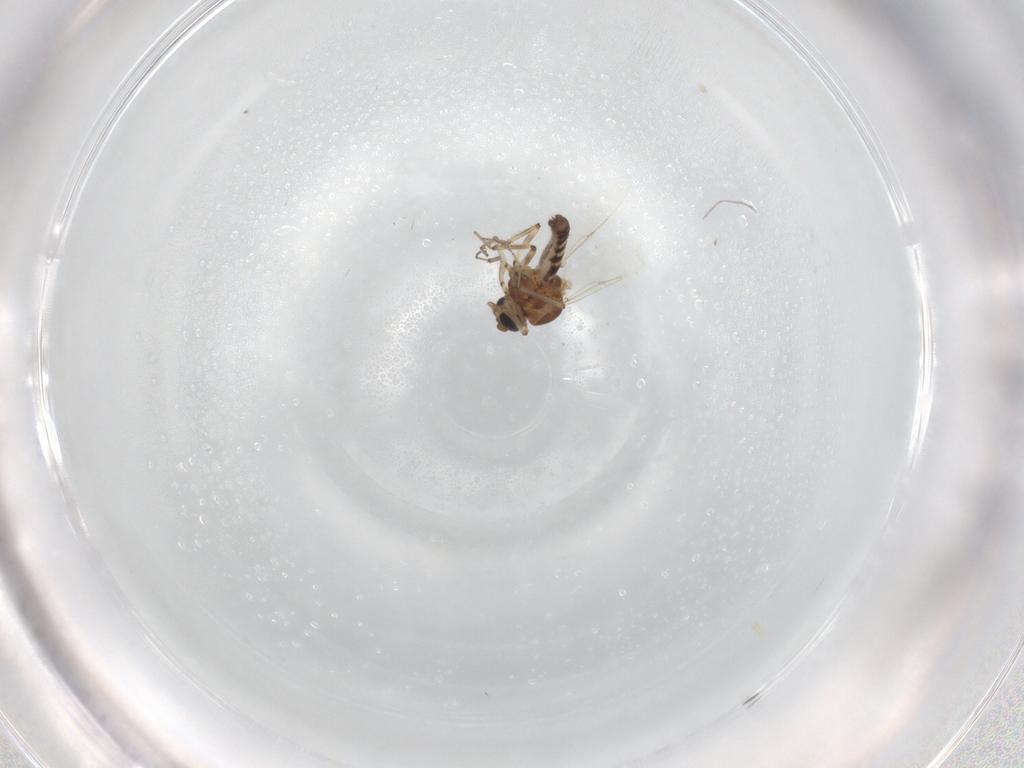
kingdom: Animalia
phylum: Arthropoda
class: Insecta
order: Diptera
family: Ceratopogonidae
